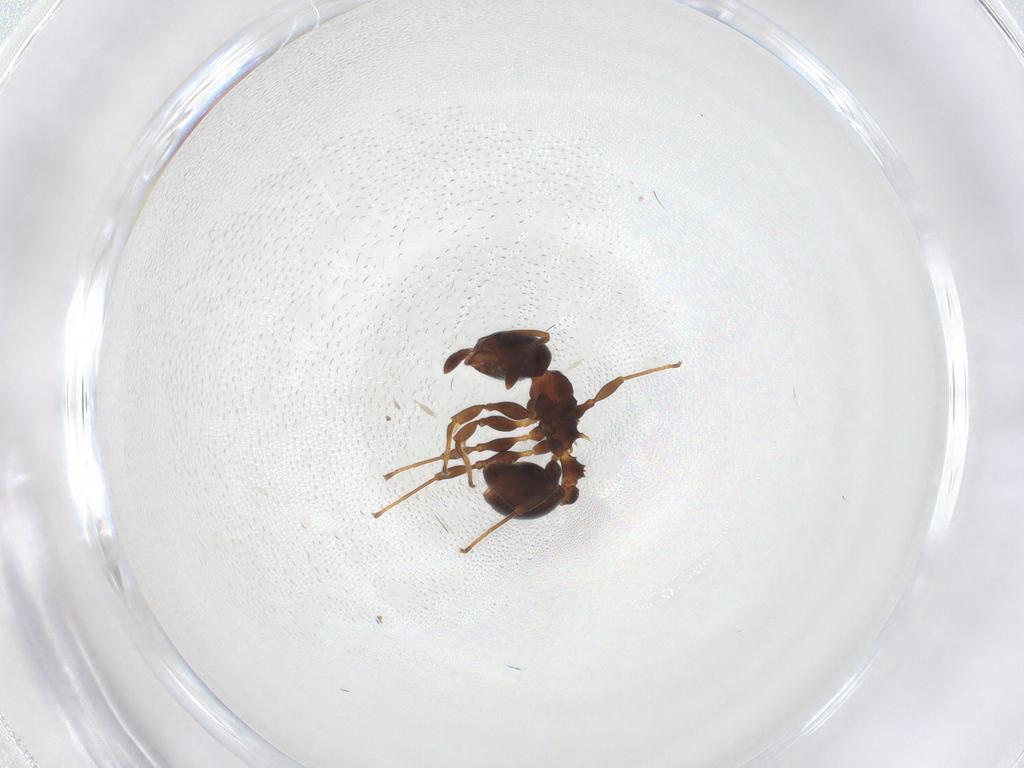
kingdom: Animalia
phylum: Arthropoda
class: Insecta
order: Hymenoptera
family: Formicidae
